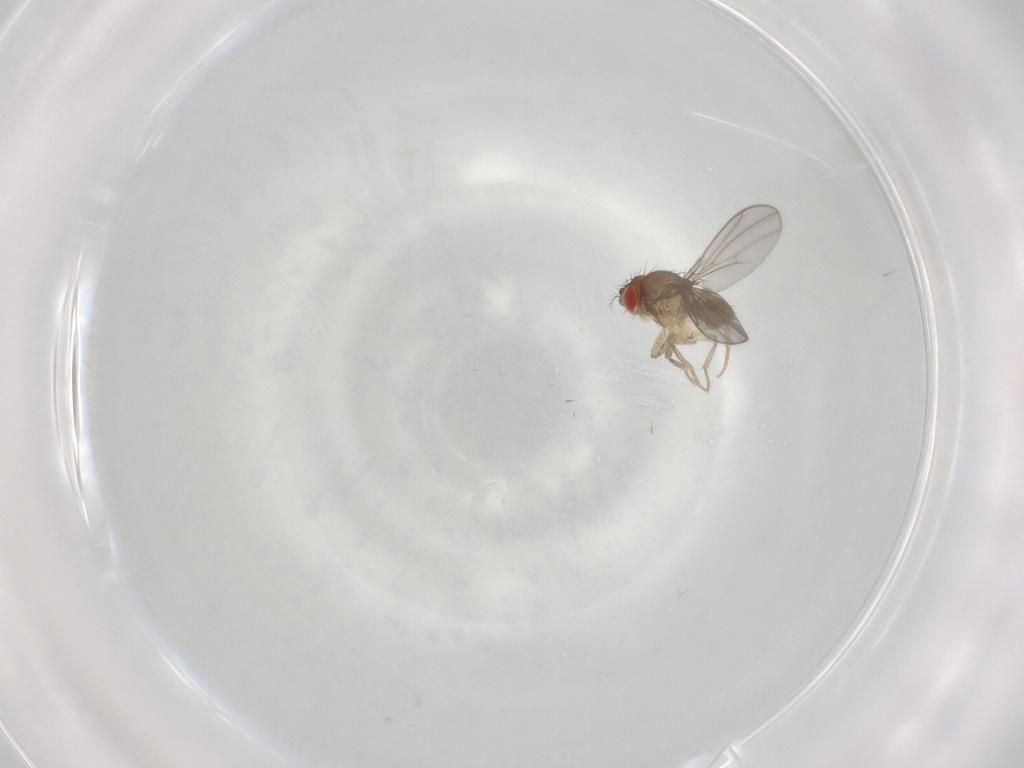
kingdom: Animalia
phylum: Arthropoda
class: Insecta
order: Diptera
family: Drosophilidae
